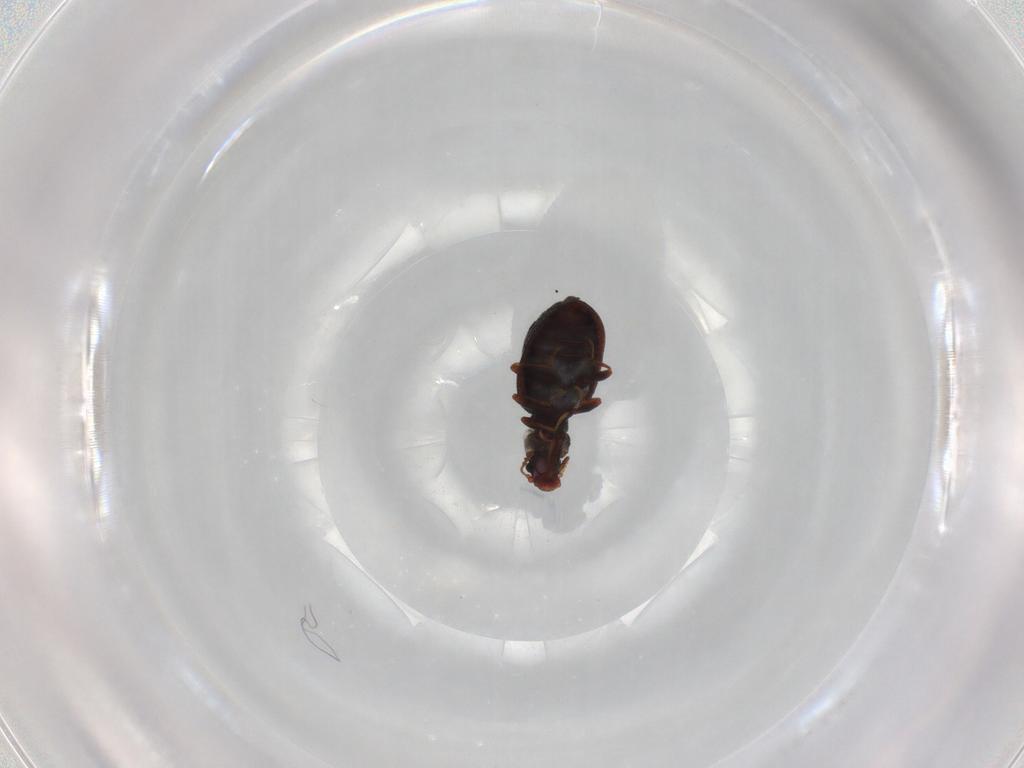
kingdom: Animalia
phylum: Arthropoda
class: Insecta
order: Coleoptera
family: Latridiidae
